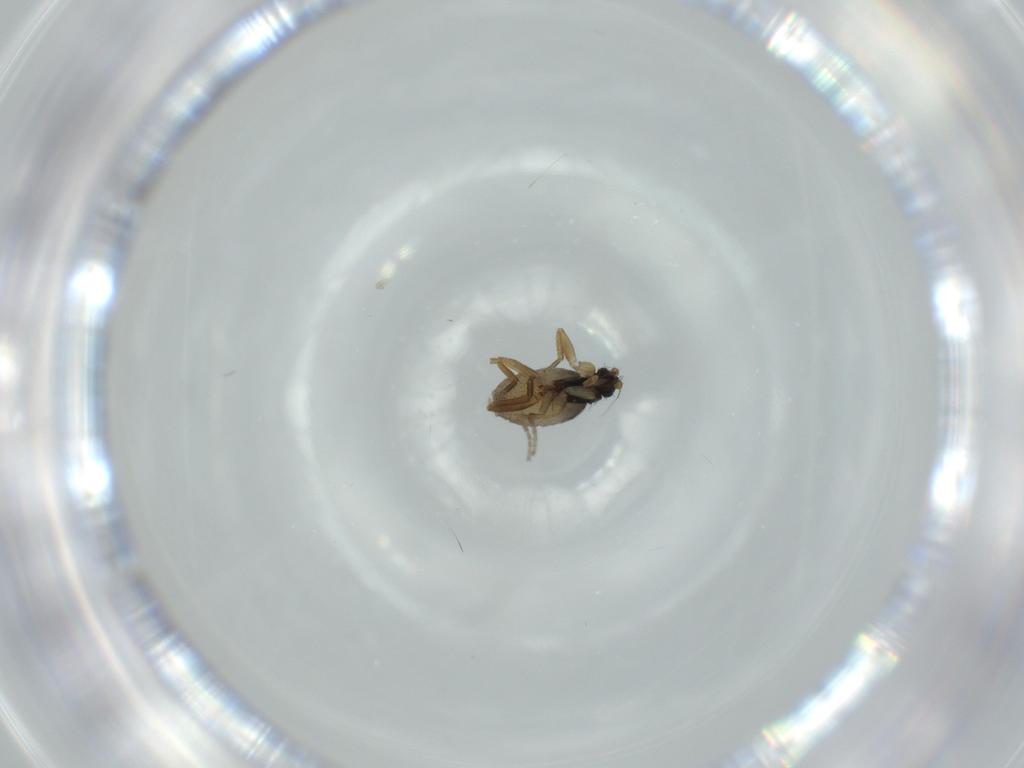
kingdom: Animalia
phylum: Arthropoda
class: Insecta
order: Diptera
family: Phoridae
